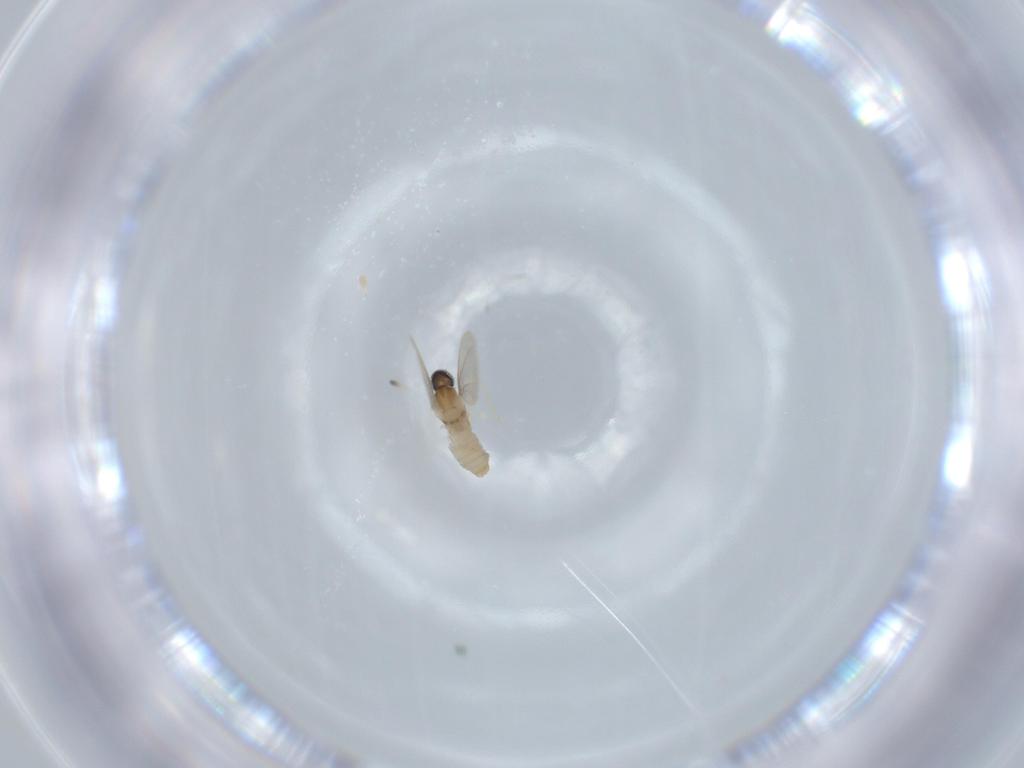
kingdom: Animalia
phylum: Arthropoda
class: Insecta
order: Diptera
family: Cecidomyiidae
